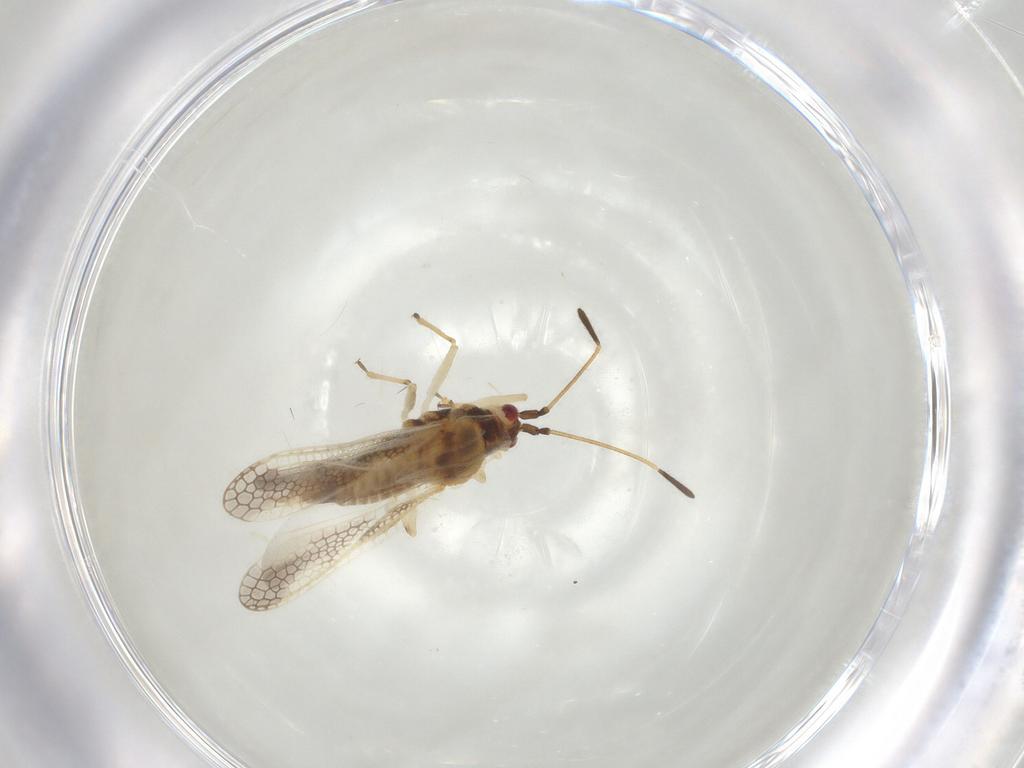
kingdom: Animalia
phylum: Arthropoda
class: Insecta
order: Hemiptera
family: Tingidae
